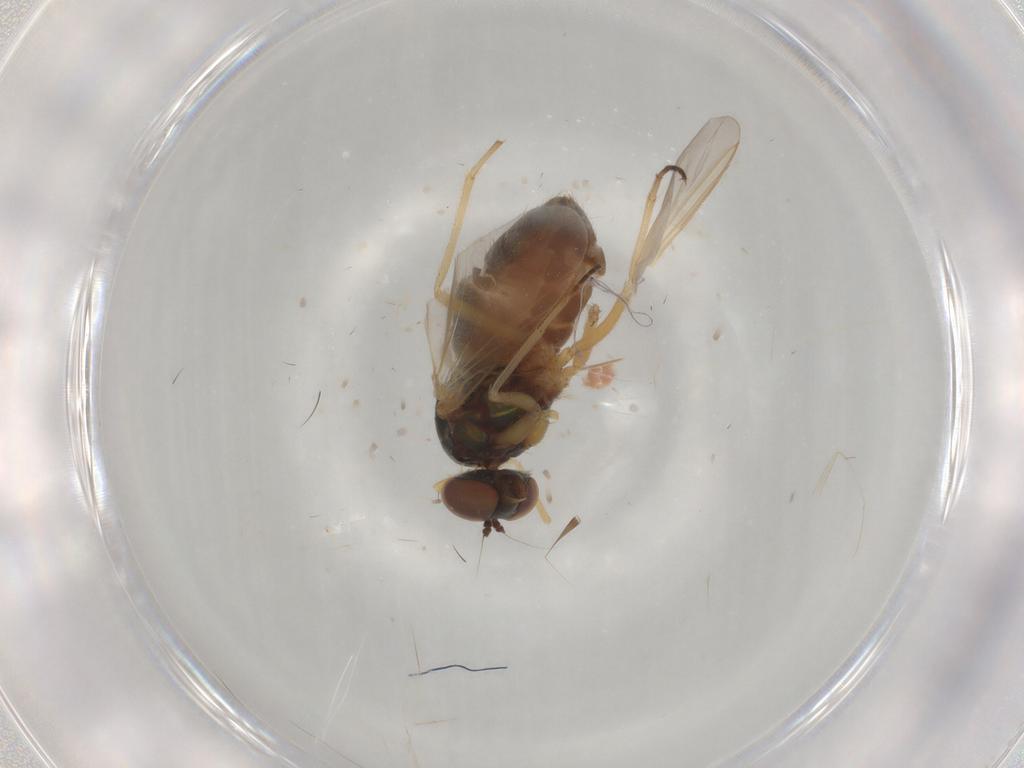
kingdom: Animalia
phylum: Arthropoda
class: Insecta
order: Diptera
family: Dolichopodidae
